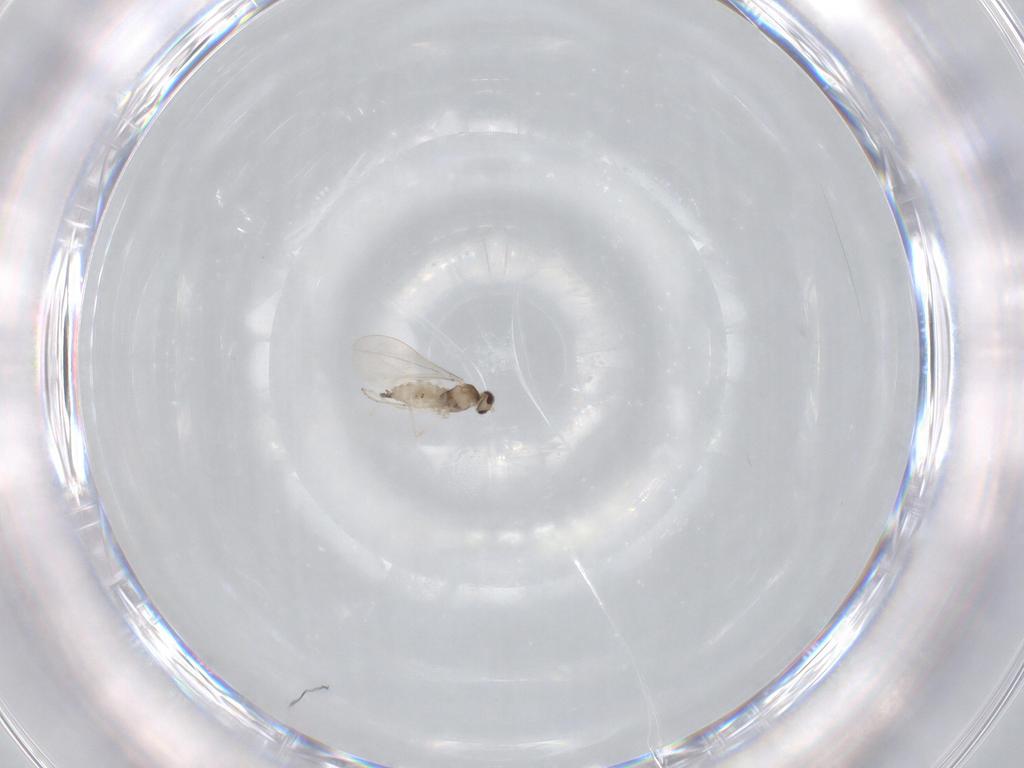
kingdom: Animalia
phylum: Arthropoda
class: Insecta
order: Diptera
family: Cecidomyiidae
